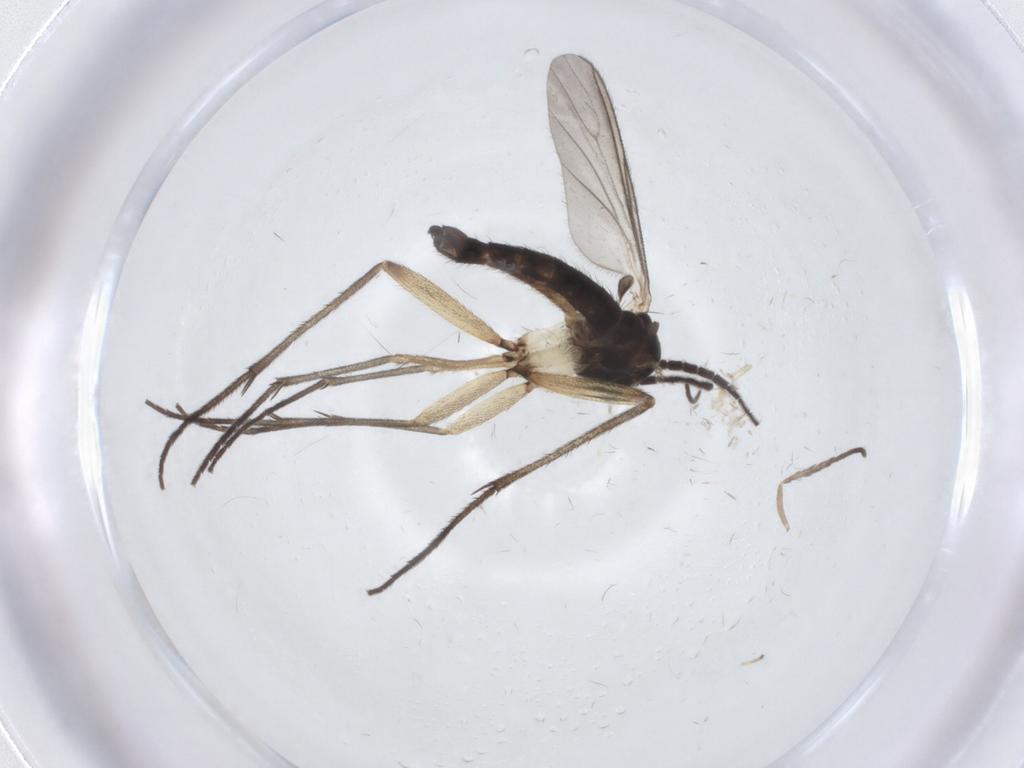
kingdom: Animalia
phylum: Arthropoda
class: Insecta
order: Diptera
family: Sciaridae
